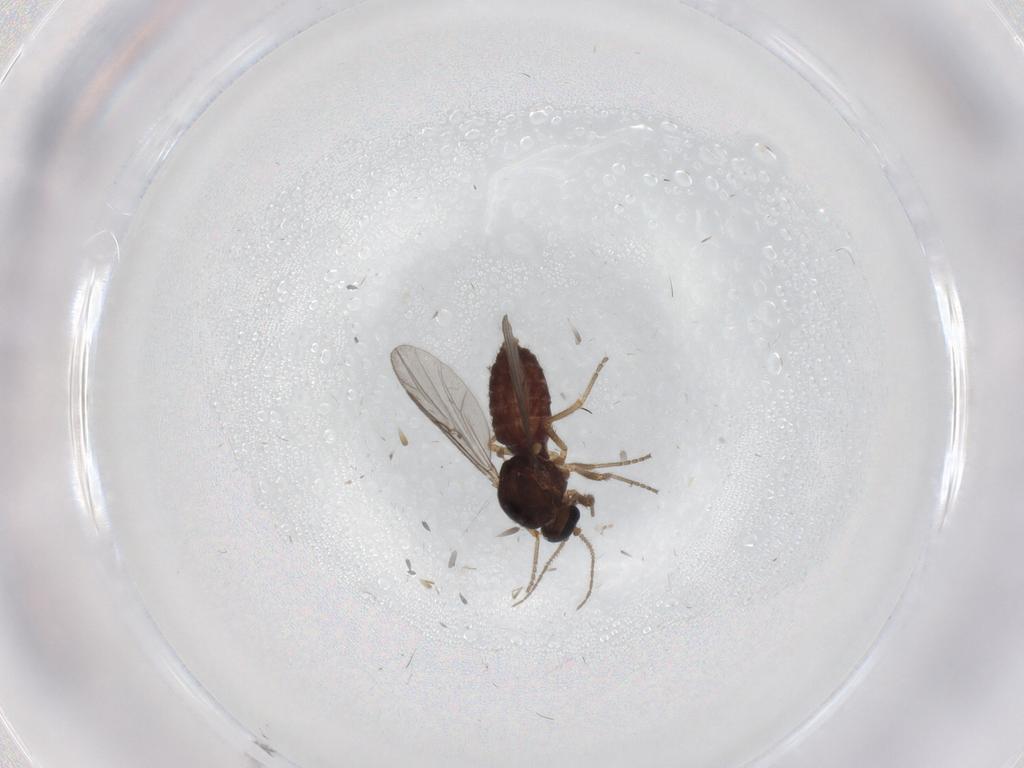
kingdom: Animalia
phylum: Arthropoda
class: Insecta
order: Diptera
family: Ceratopogonidae
